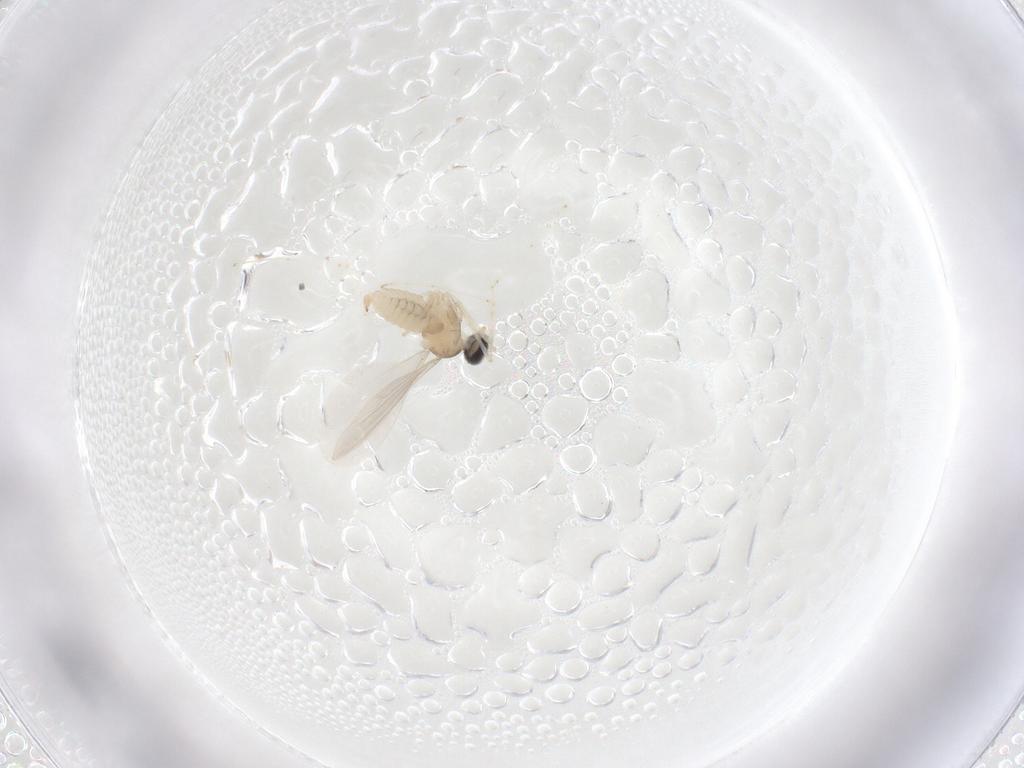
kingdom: Animalia
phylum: Arthropoda
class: Insecta
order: Diptera
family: Cecidomyiidae
